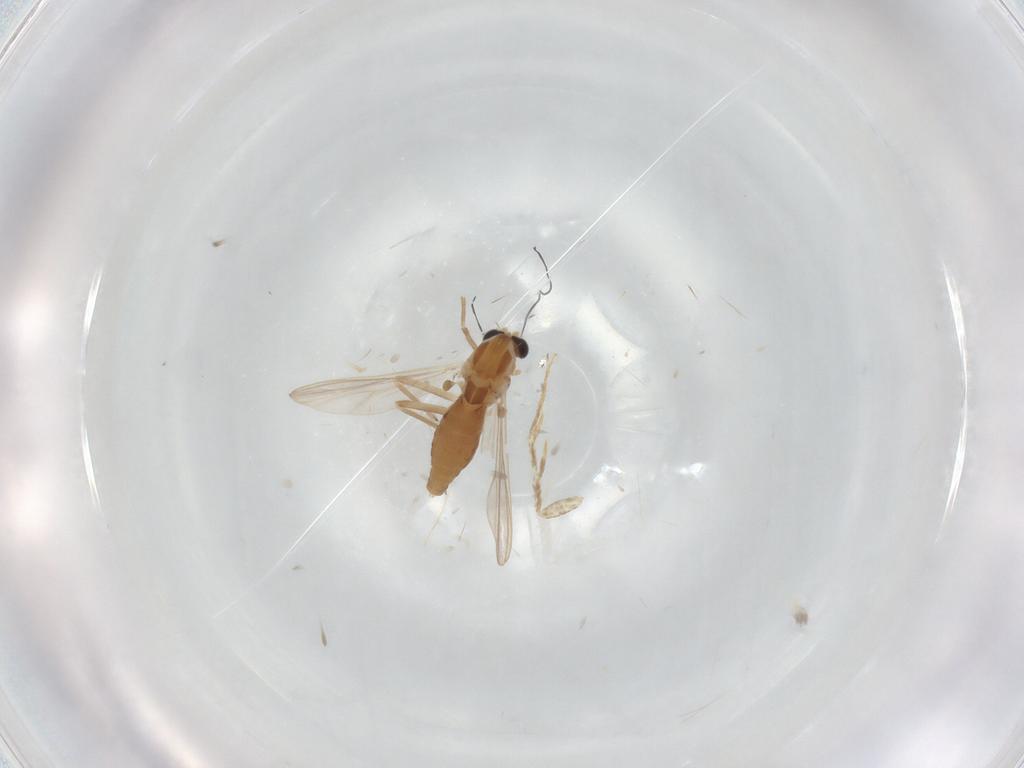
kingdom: Animalia
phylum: Arthropoda
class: Insecta
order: Diptera
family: Chironomidae
